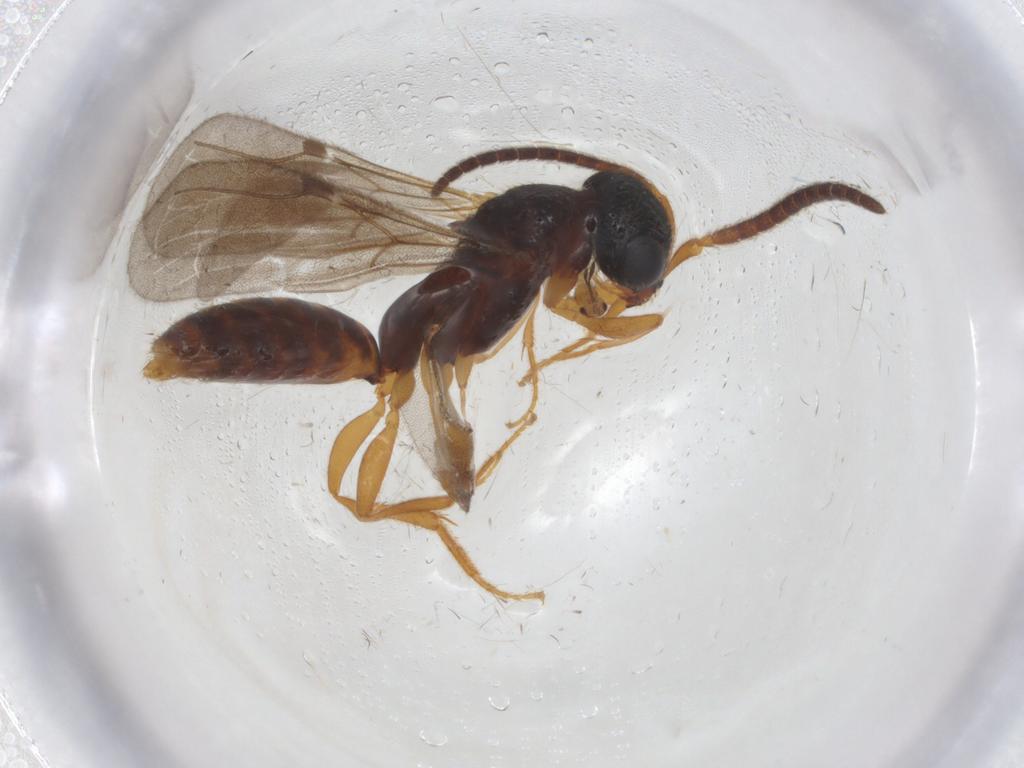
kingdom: Animalia
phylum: Arthropoda
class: Insecta
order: Hymenoptera
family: Bethylidae
